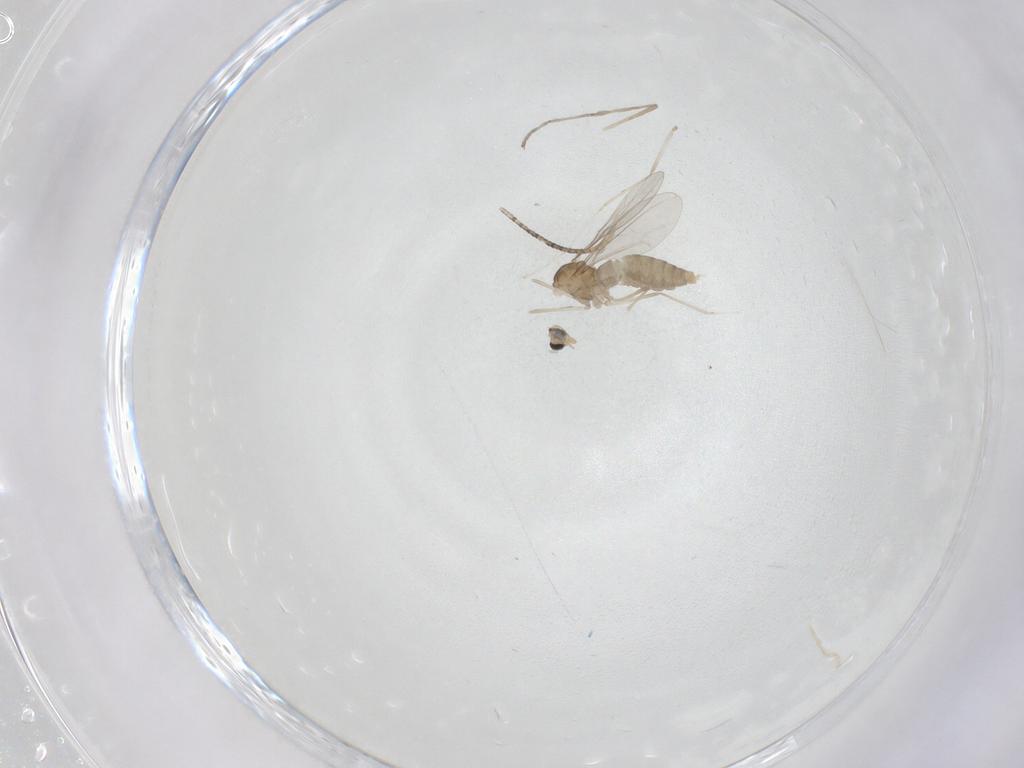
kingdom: Animalia
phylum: Arthropoda
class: Insecta
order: Diptera
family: Cecidomyiidae
